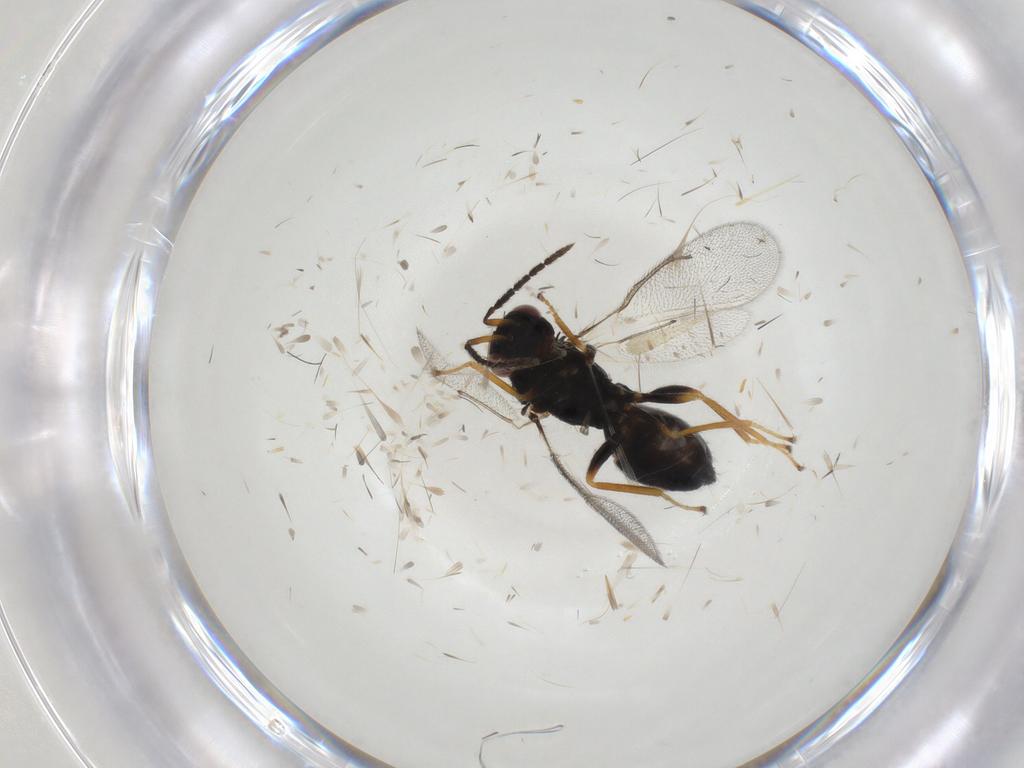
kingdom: Animalia
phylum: Arthropoda
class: Insecta
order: Hymenoptera
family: Eulophidae
